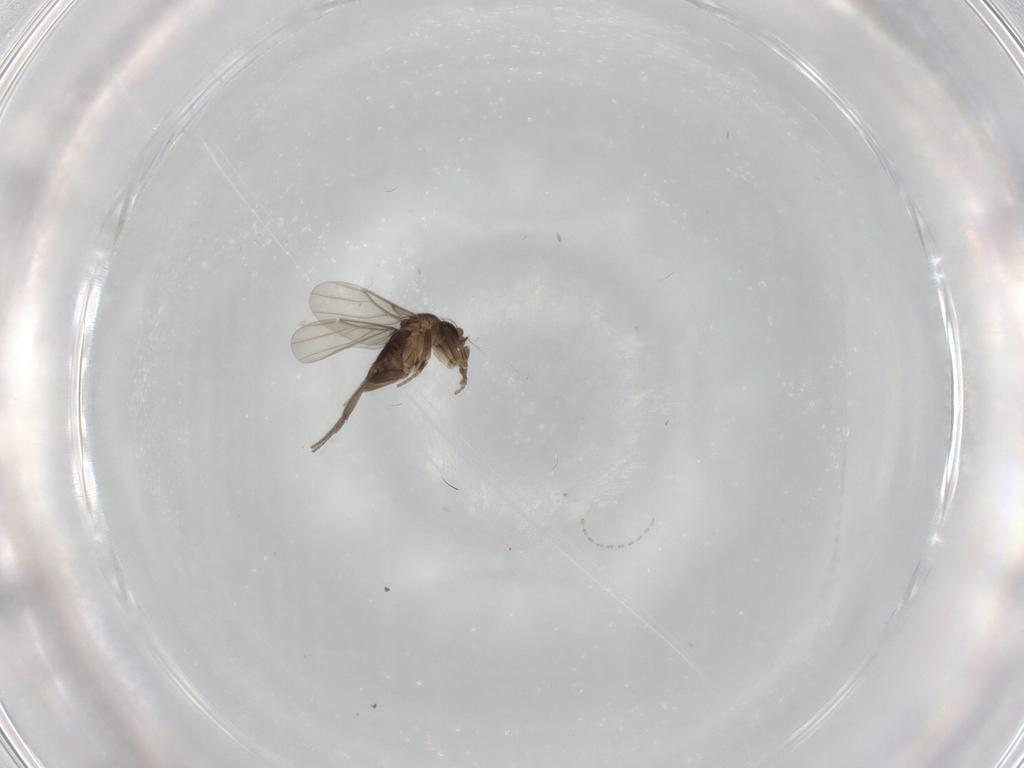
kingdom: Animalia
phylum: Arthropoda
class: Insecta
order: Diptera
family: Phoridae
